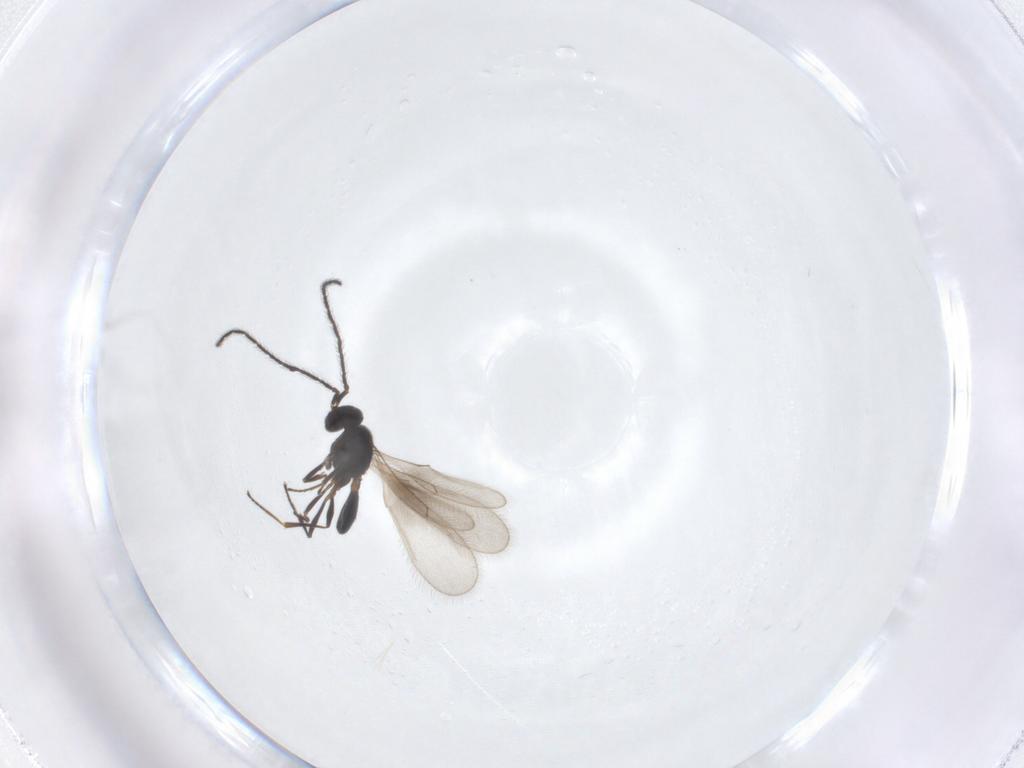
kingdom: Animalia
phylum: Arthropoda
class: Insecta
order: Hymenoptera
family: Scelionidae
